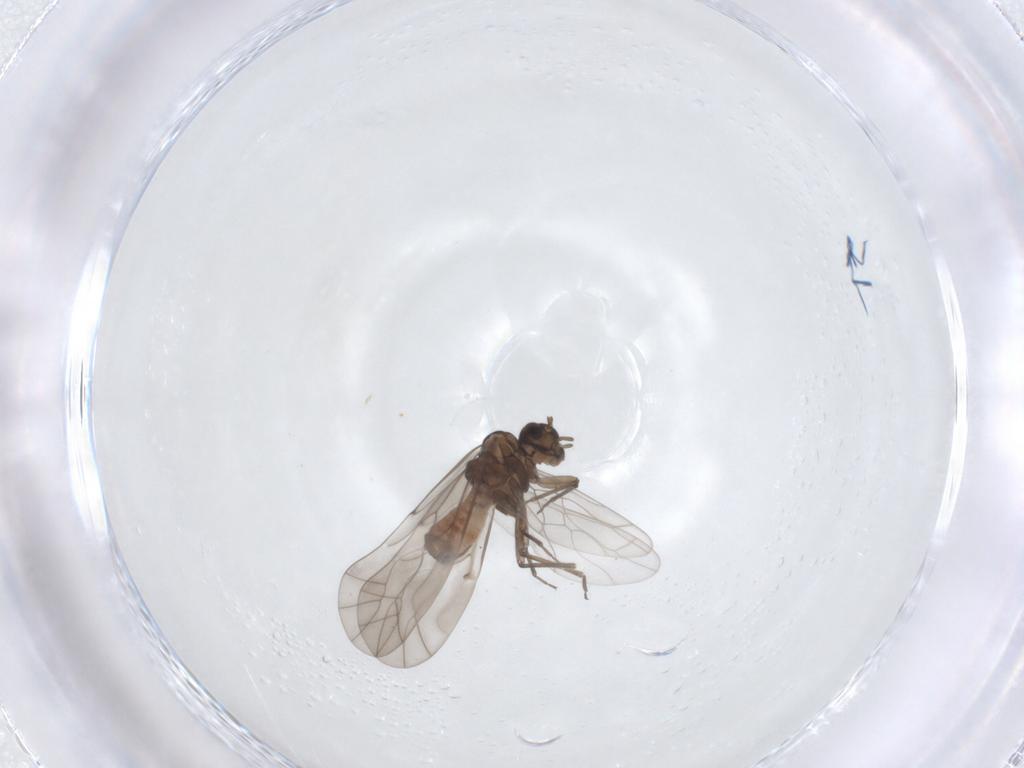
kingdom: Animalia
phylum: Arthropoda
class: Insecta
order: Psocodea
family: Lachesillidae
